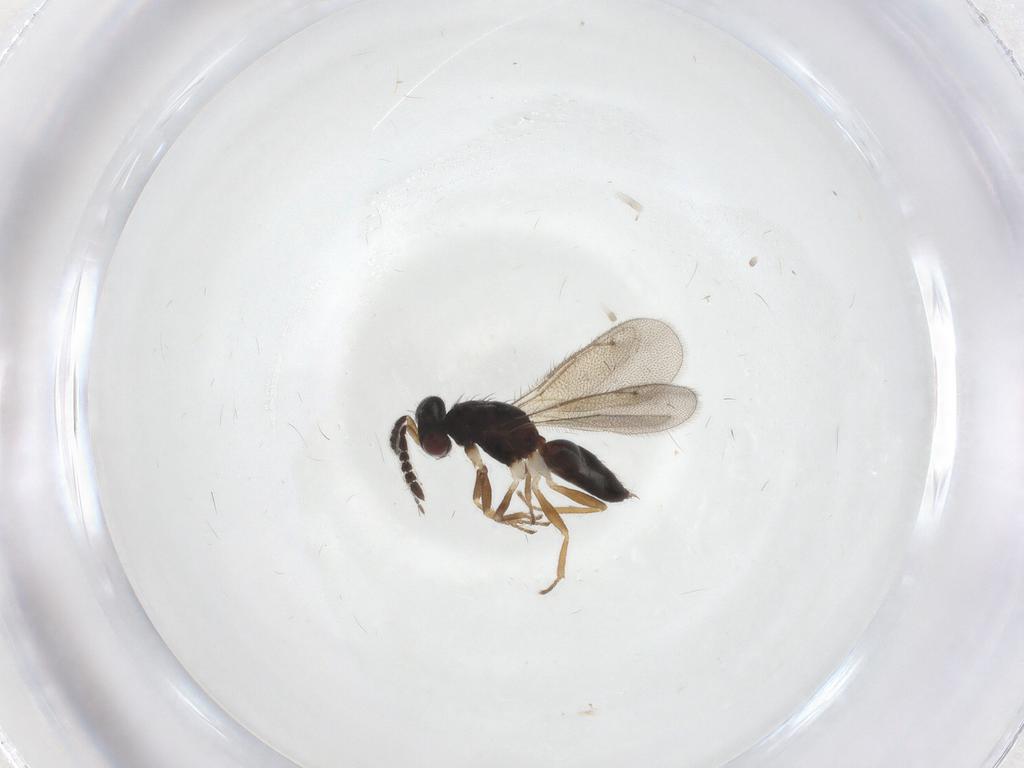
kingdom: Animalia
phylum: Arthropoda
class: Insecta
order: Hymenoptera
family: Eulophidae
